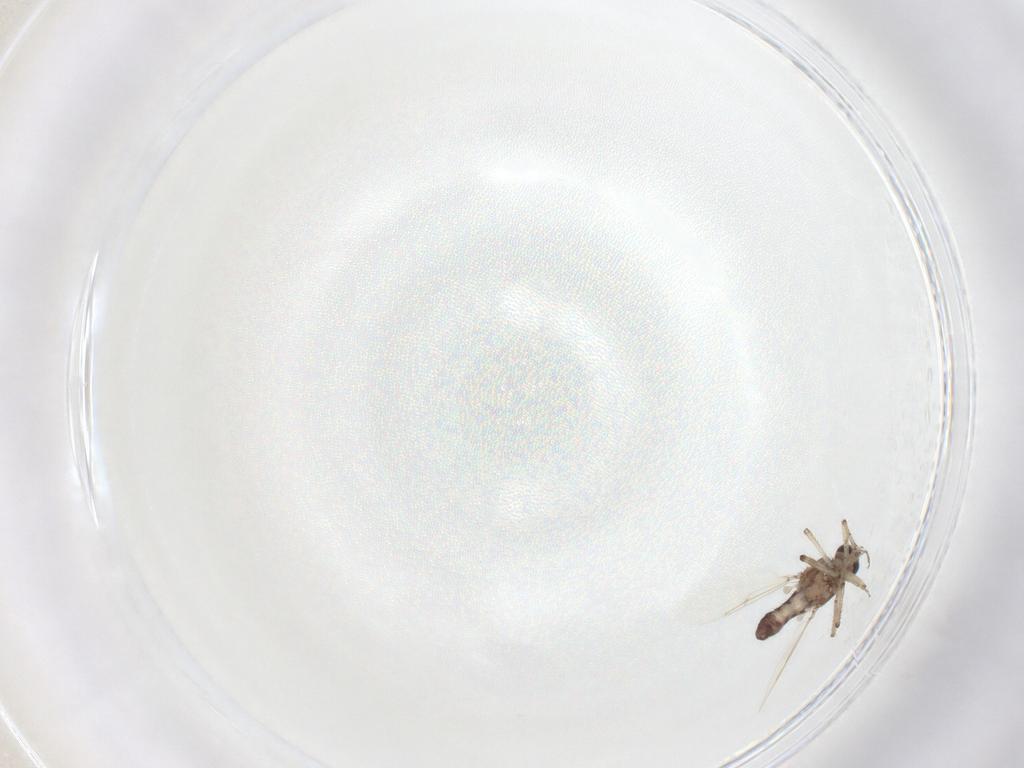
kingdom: Animalia
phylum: Arthropoda
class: Insecta
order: Diptera
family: Ceratopogonidae
